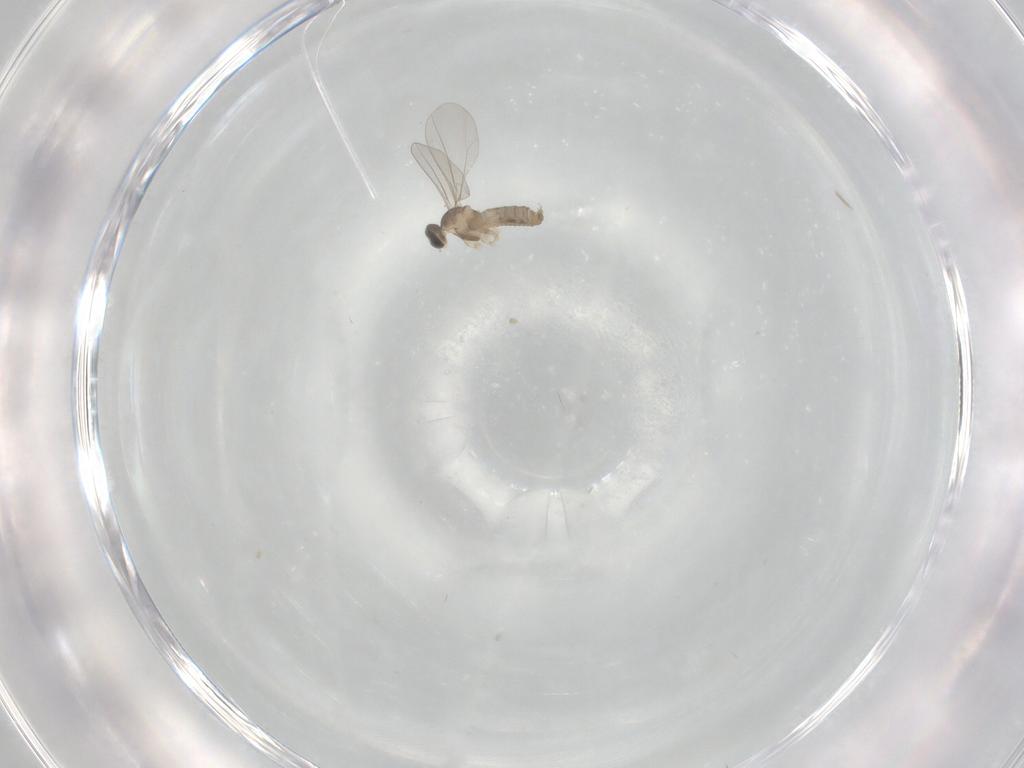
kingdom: Animalia
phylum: Arthropoda
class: Insecta
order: Diptera
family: Cecidomyiidae
